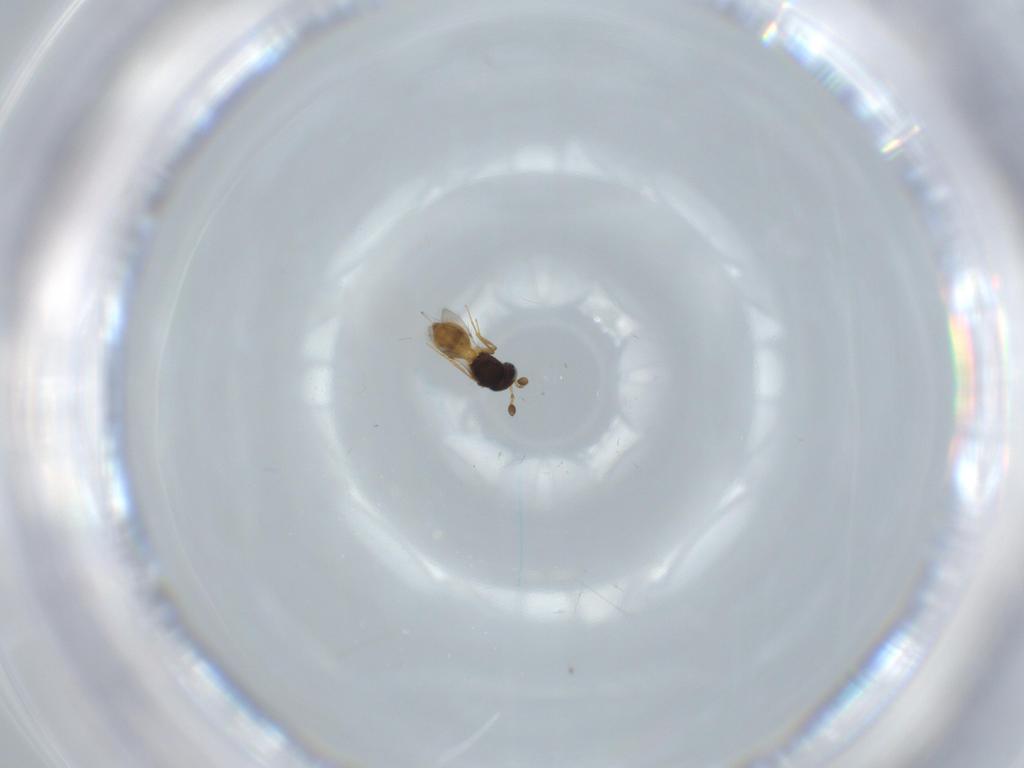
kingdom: Animalia
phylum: Arthropoda
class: Insecta
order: Hymenoptera
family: Scelionidae
